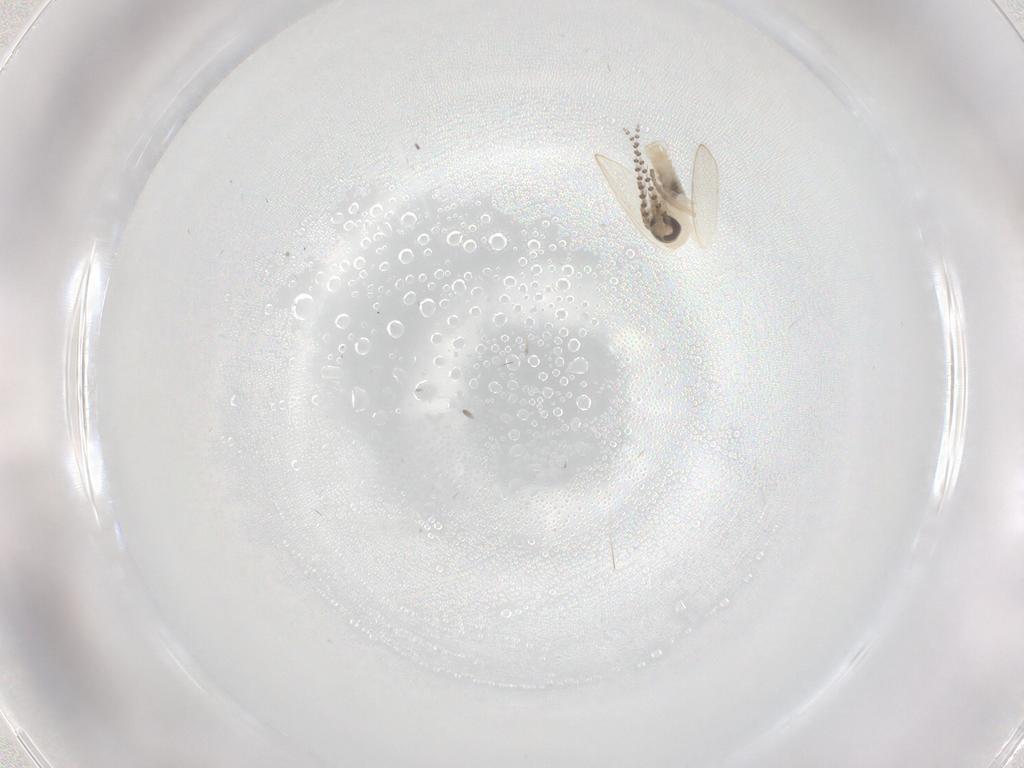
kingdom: Animalia
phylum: Arthropoda
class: Insecta
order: Diptera
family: Psychodidae
